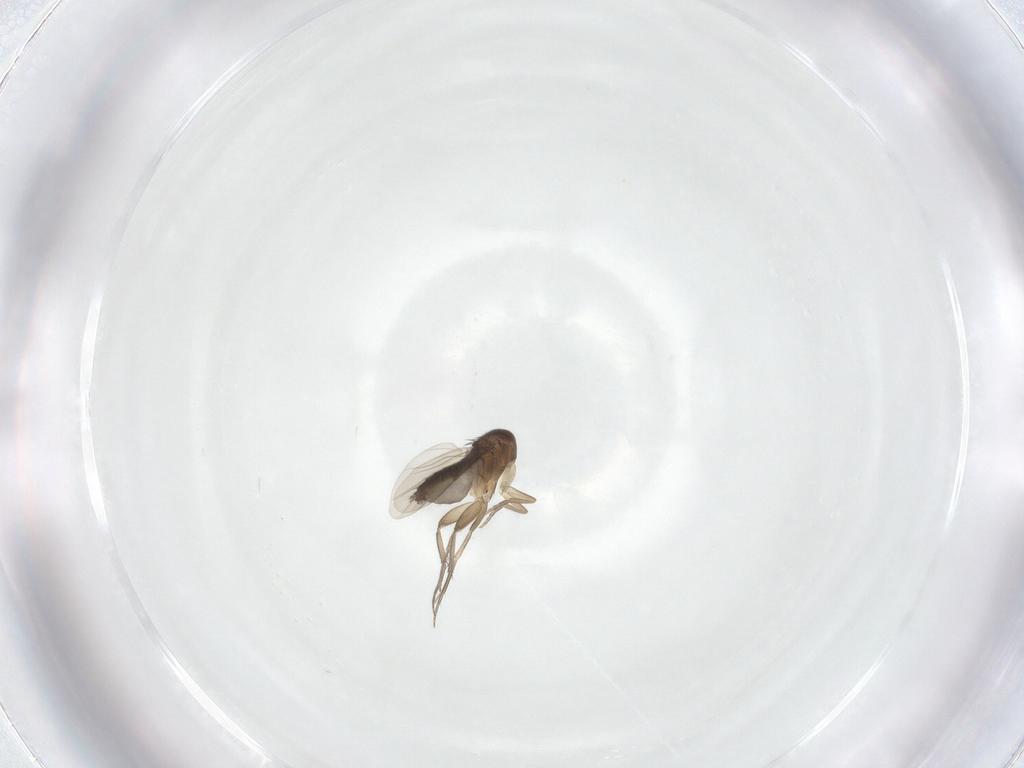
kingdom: Animalia
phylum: Arthropoda
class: Insecta
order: Diptera
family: Phoridae
